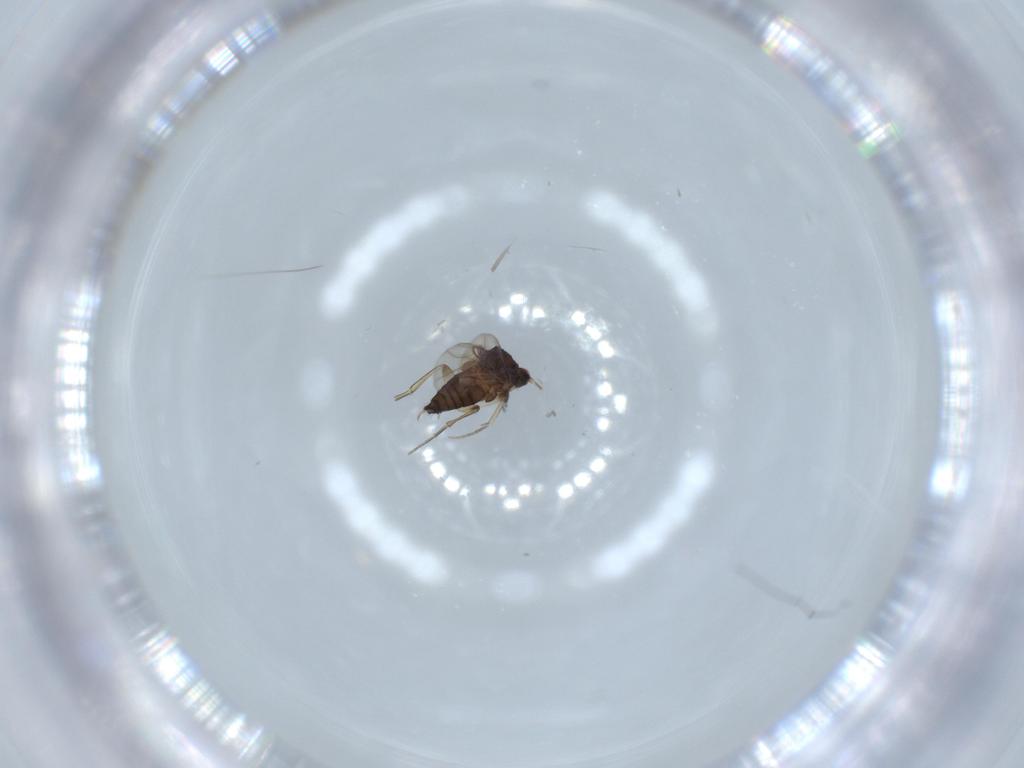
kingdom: Animalia
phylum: Arthropoda
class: Insecta
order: Diptera
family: Phoridae
